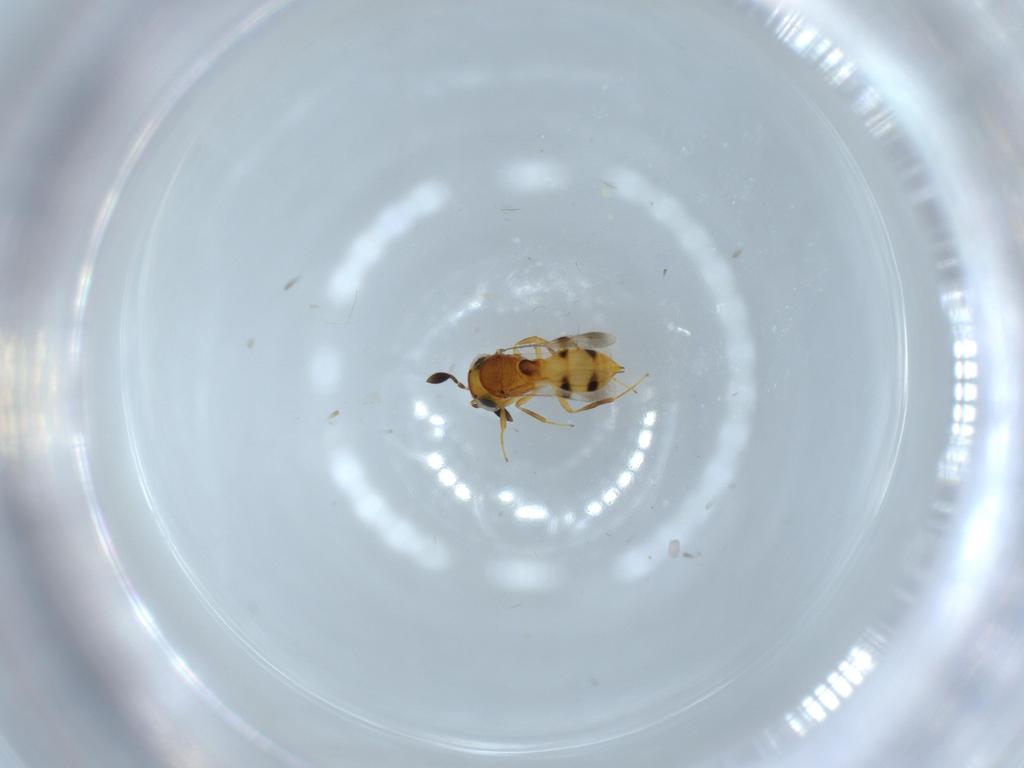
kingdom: Animalia
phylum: Arthropoda
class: Insecta
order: Hymenoptera
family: Scelionidae
